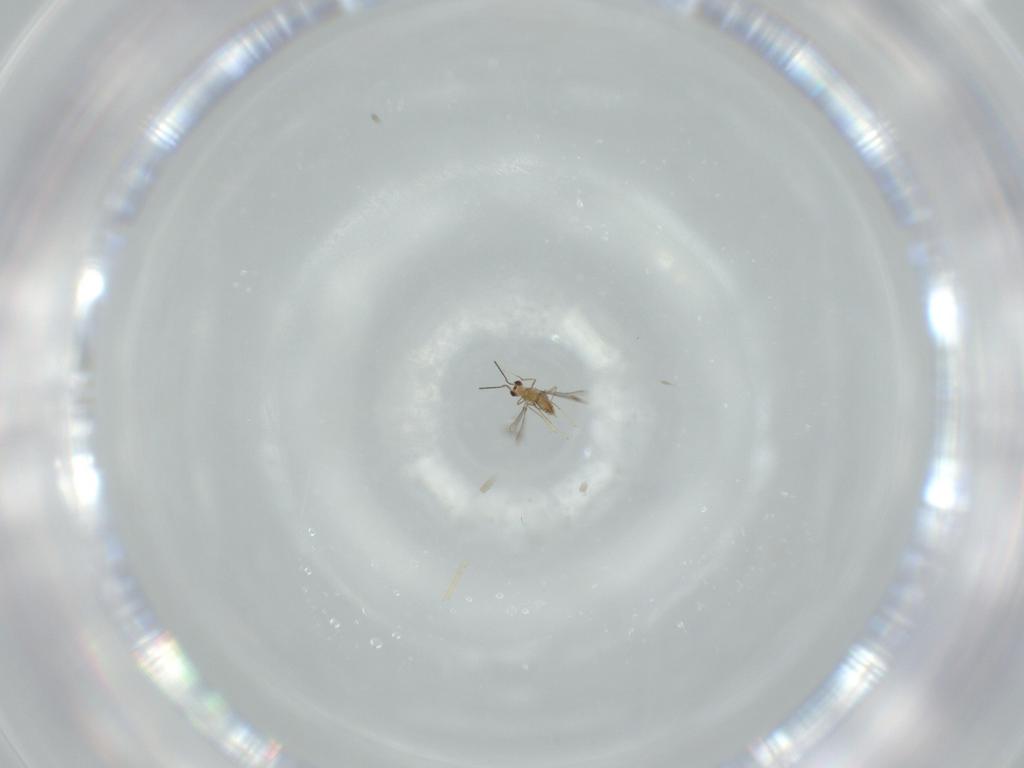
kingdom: Animalia
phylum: Arthropoda
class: Insecta
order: Hymenoptera
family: Mymaridae
